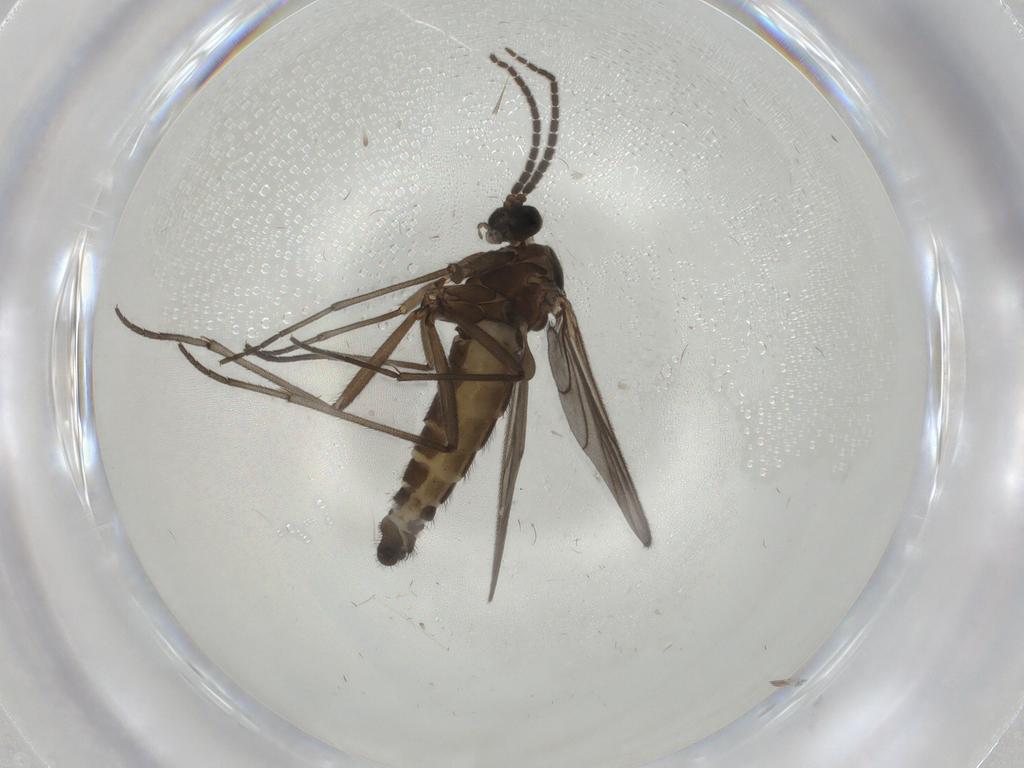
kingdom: Animalia
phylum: Arthropoda
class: Insecta
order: Diptera
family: Sciaridae
